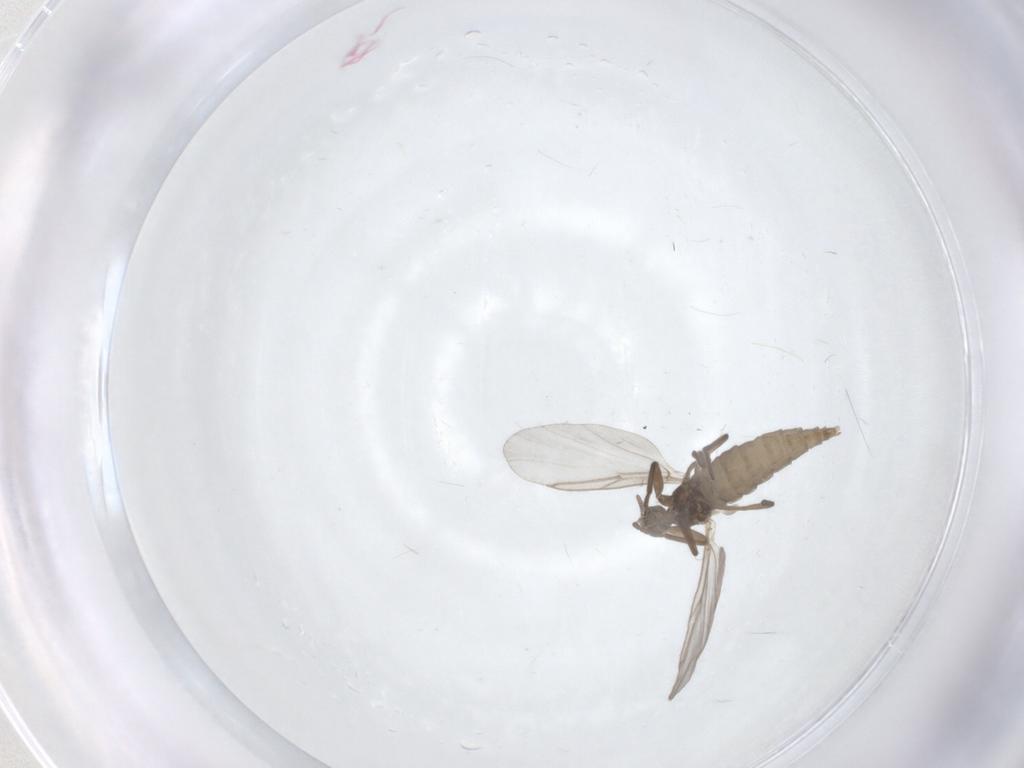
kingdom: Animalia
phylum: Arthropoda
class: Insecta
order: Diptera
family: Cecidomyiidae
